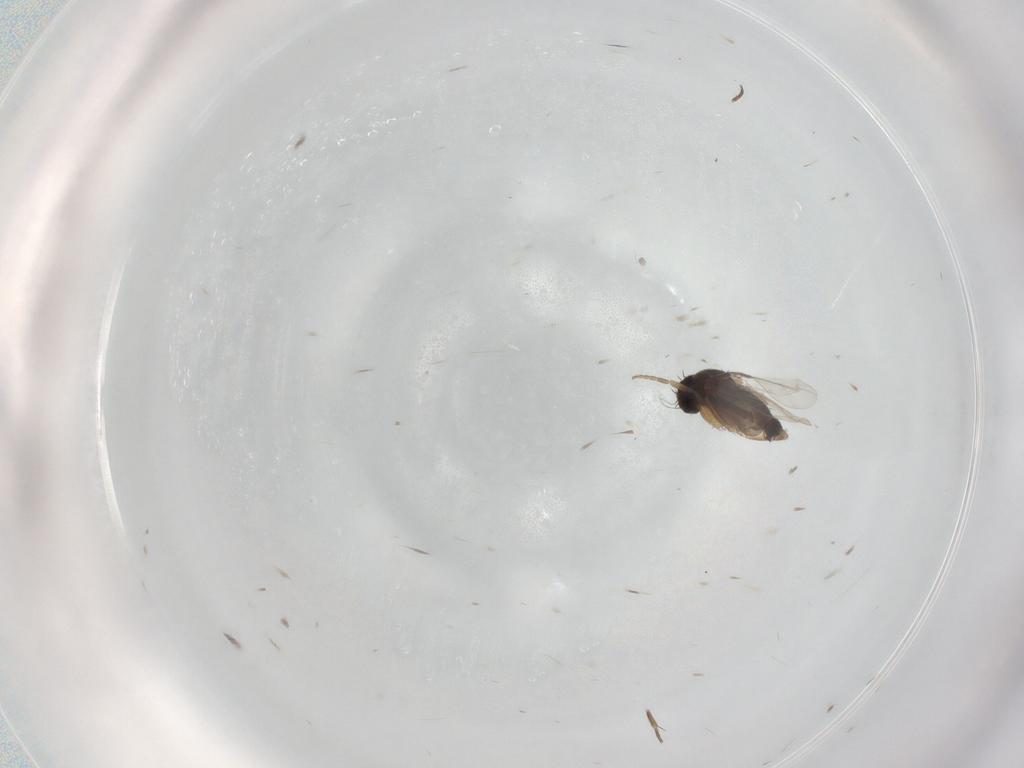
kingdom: Animalia
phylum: Arthropoda
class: Insecta
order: Diptera
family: Phoridae
